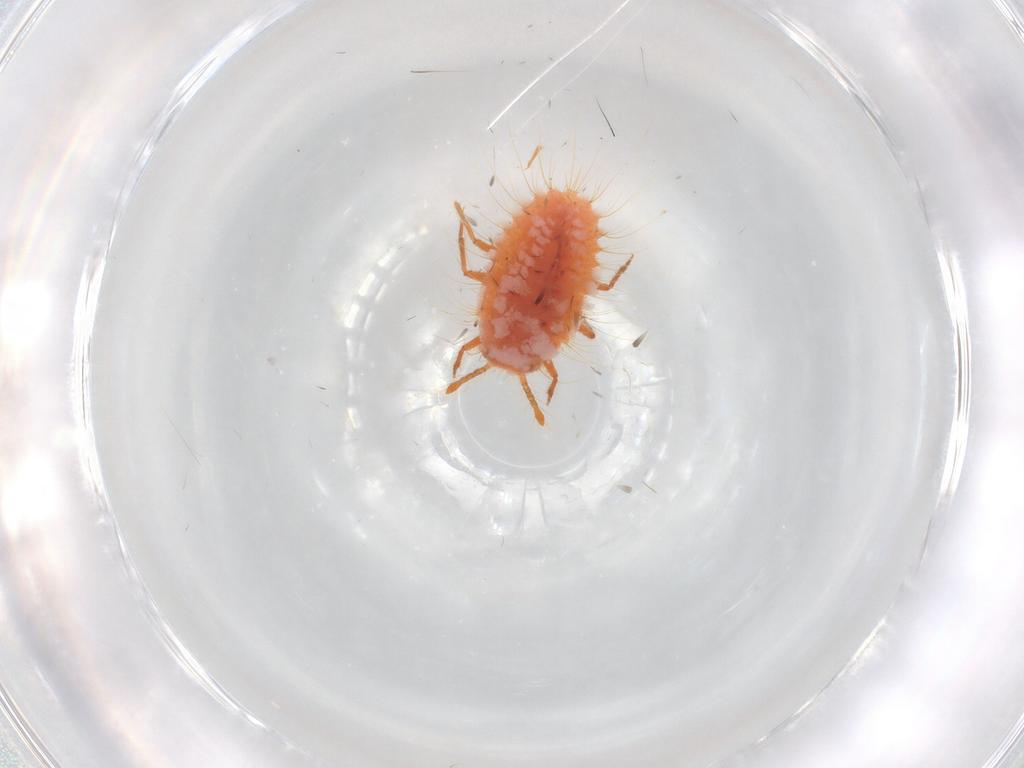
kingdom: Animalia
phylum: Arthropoda
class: Insecta
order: Hemiptera
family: Coccoidea_incertae_sedis
